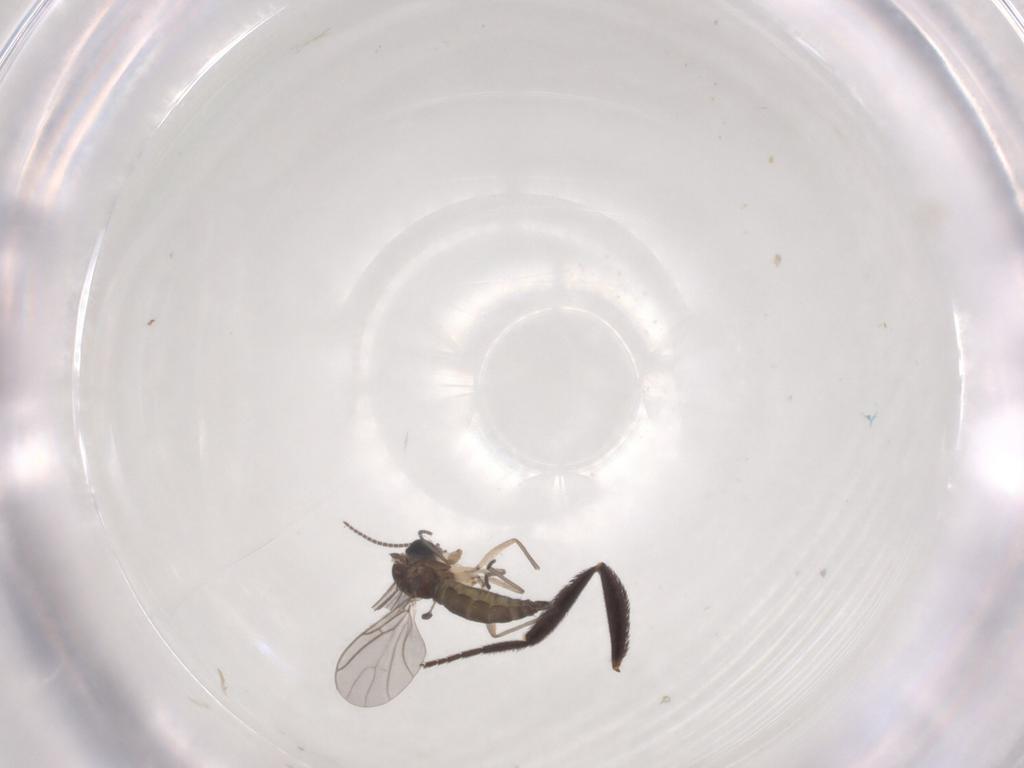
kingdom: Animalia
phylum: Arthropoda
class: Insecta
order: Diptera
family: Sciaridae
